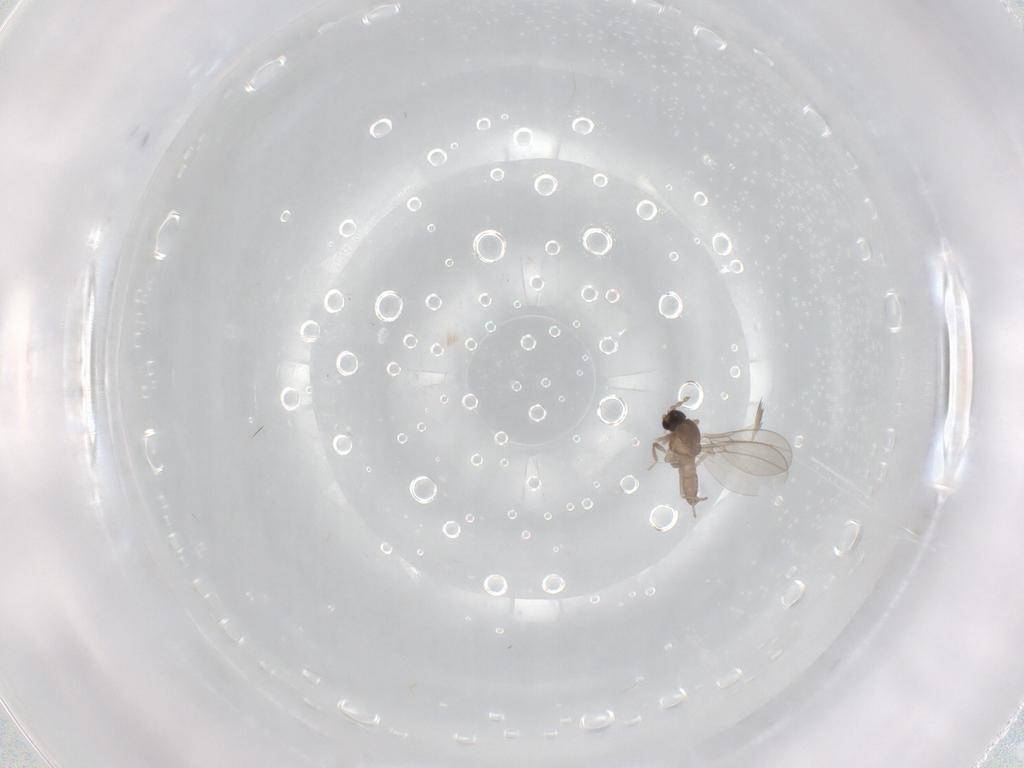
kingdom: Animalia
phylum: Arthropoda
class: Insecta
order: Diptera
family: Cecidomyiidae
